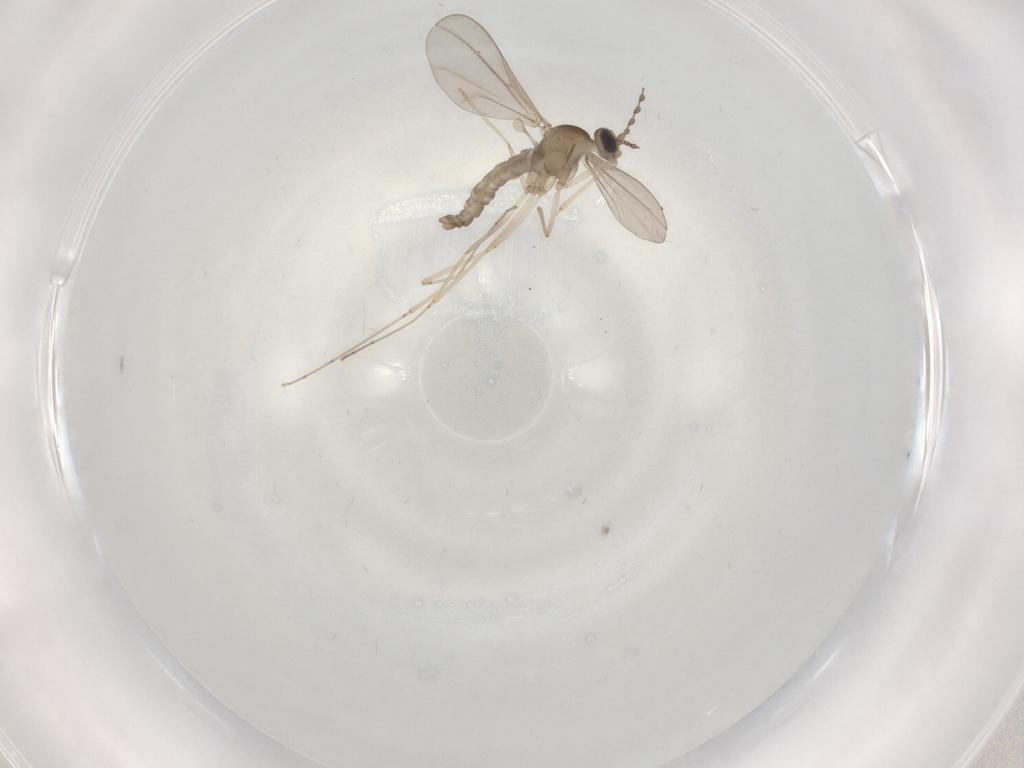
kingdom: Animalia
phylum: Arthropoda
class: Insecta
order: Diptera
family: Cecidomyiidae
